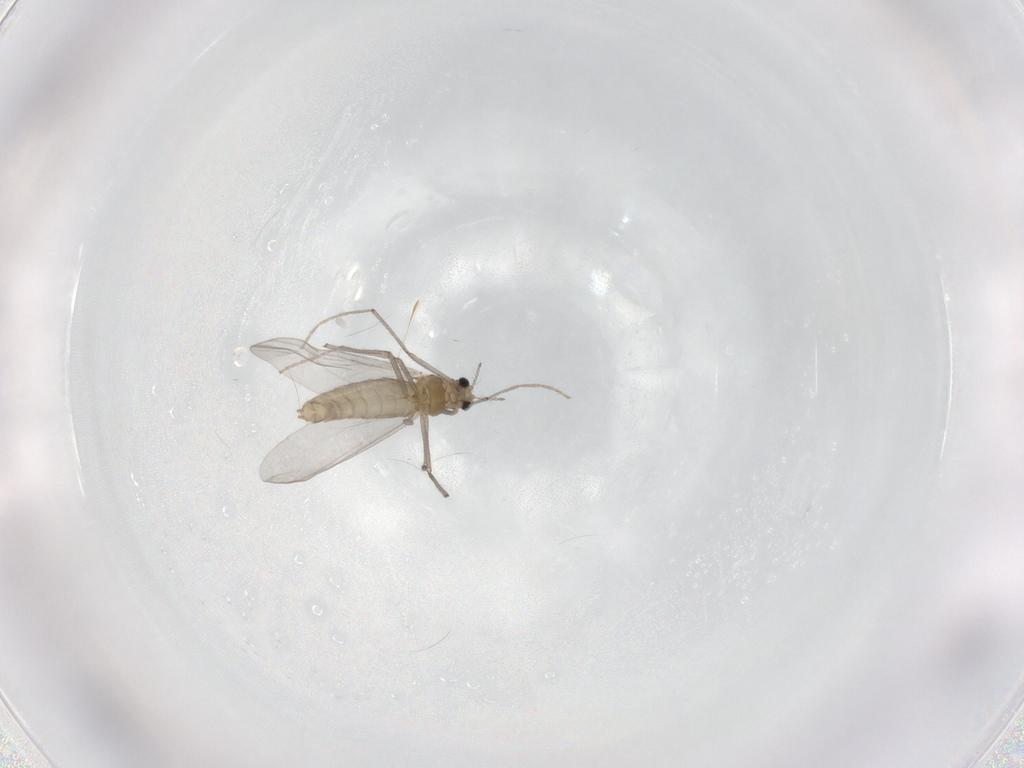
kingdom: Animalia
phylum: Arthropoda
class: Insecta
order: Diptera
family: Chironomidae
